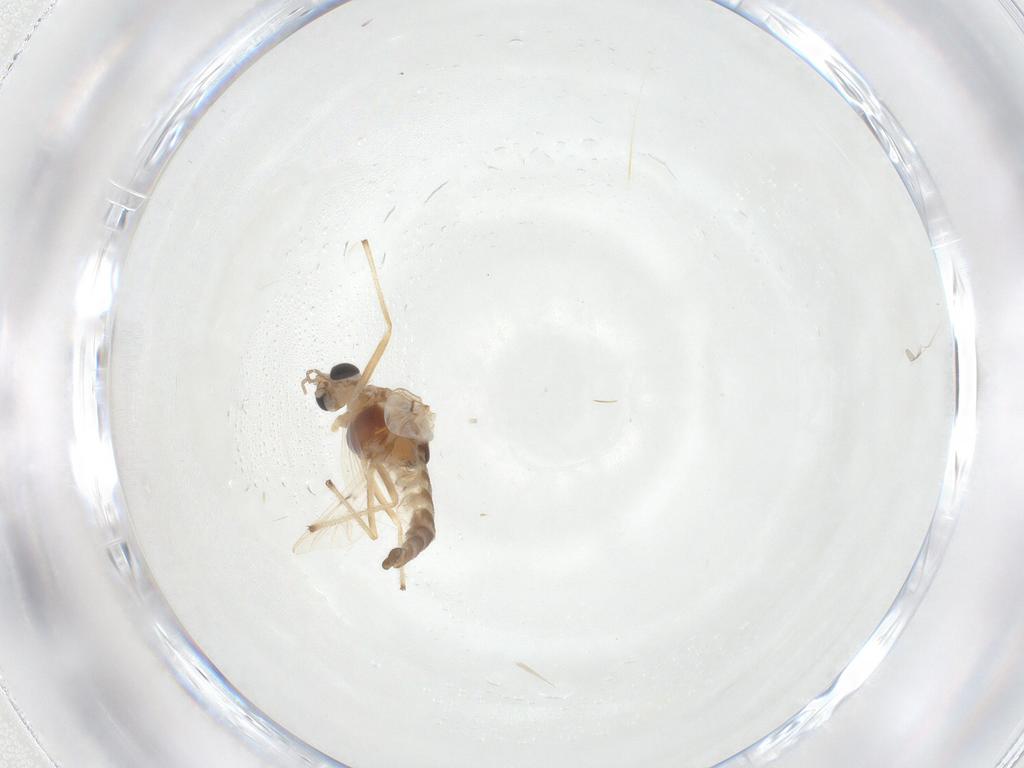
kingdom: Animalia
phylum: Arthropoda
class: Insecta
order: Diptera
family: Chironomidae
